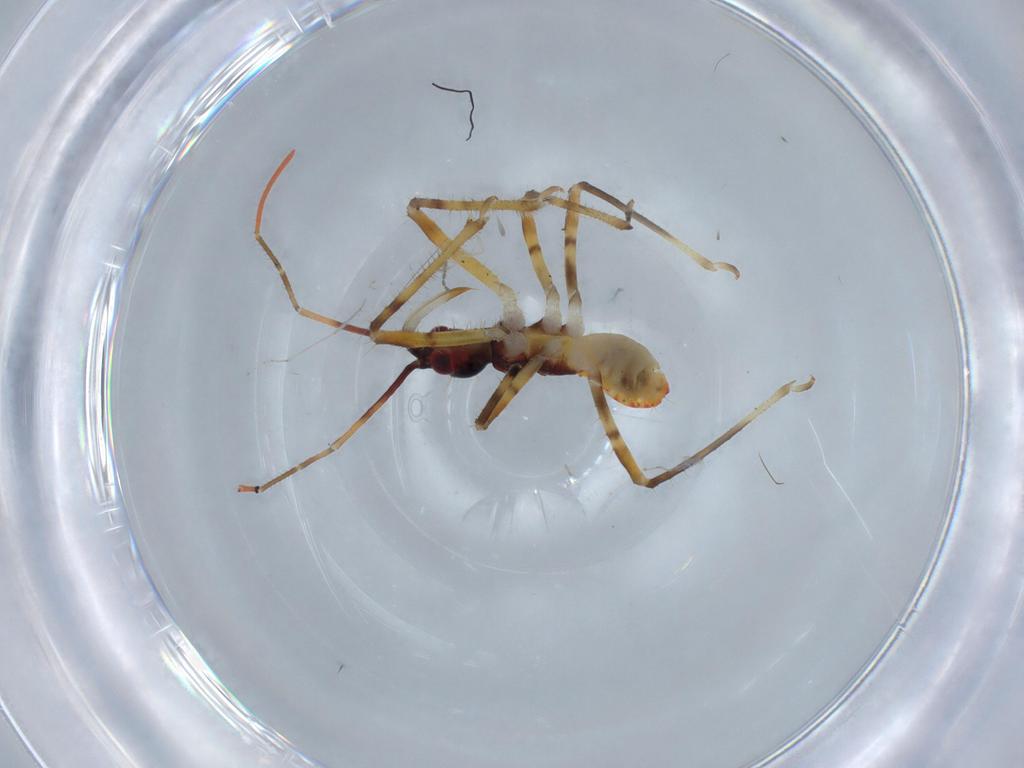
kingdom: Animalia
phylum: Arthropoda
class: Insecta
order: Hemiptera
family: Reduviidae
